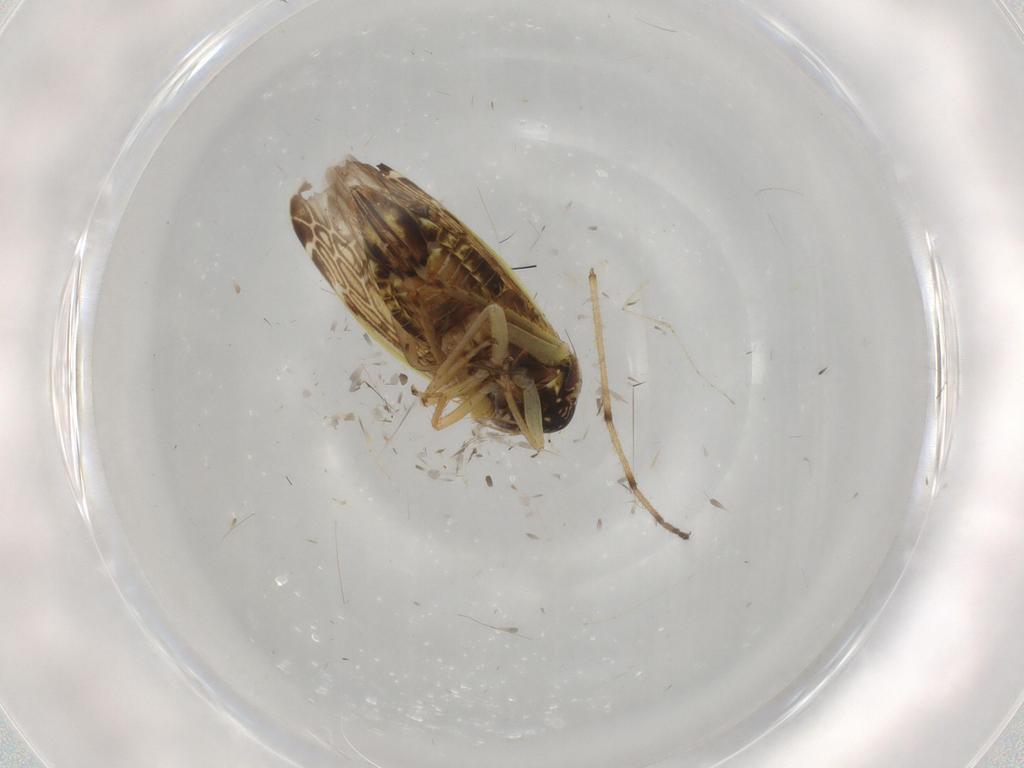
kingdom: Animalia
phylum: Arthropoda
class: Insecta
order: Hemiptera
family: Cicadellidae
